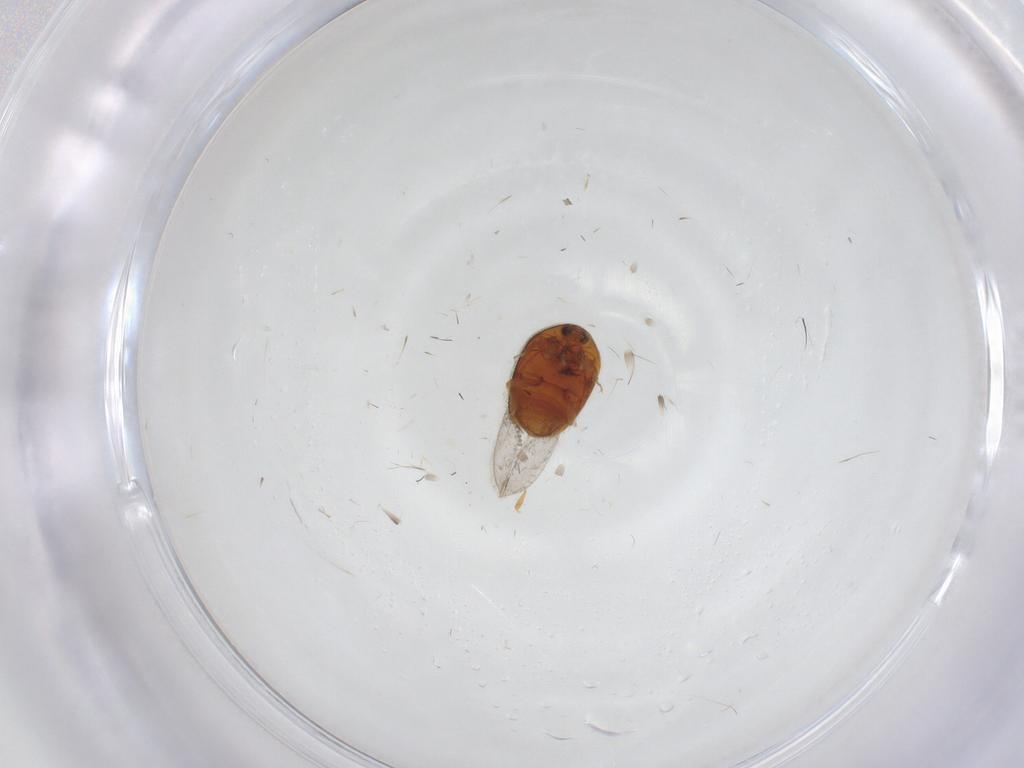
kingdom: Animalia
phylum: Arthropoda
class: Insecta
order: Coleoptera
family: Corylophidae
